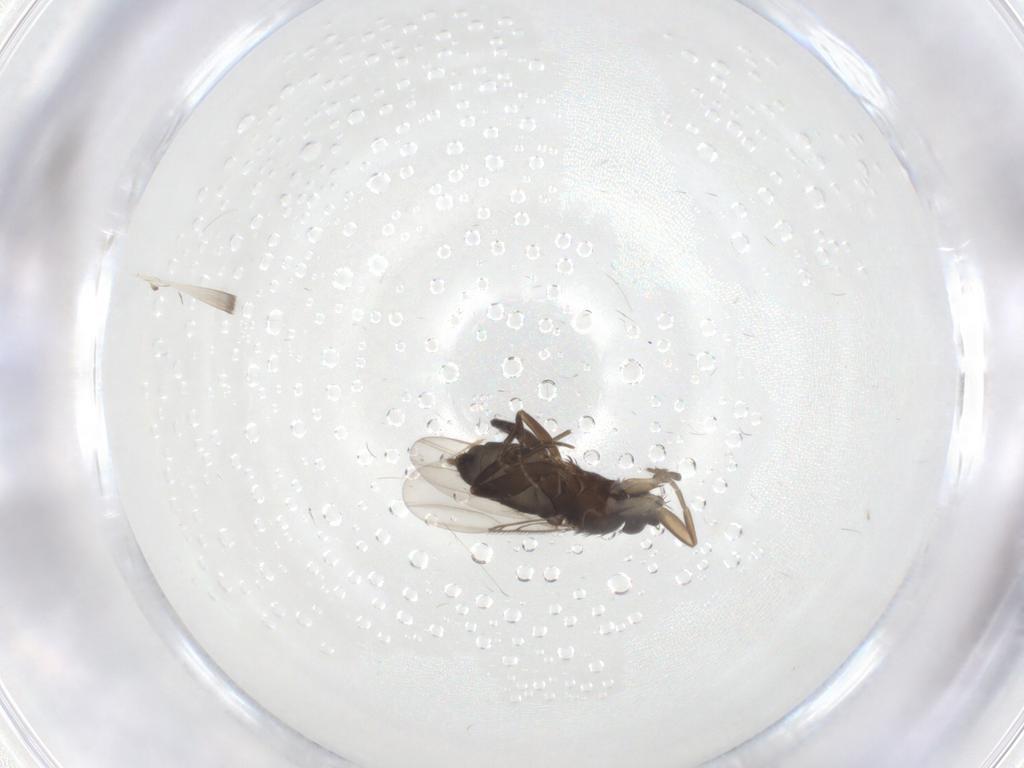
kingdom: Animalia
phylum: Arthropoda
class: Insecta
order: Diptera
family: Phoridae
